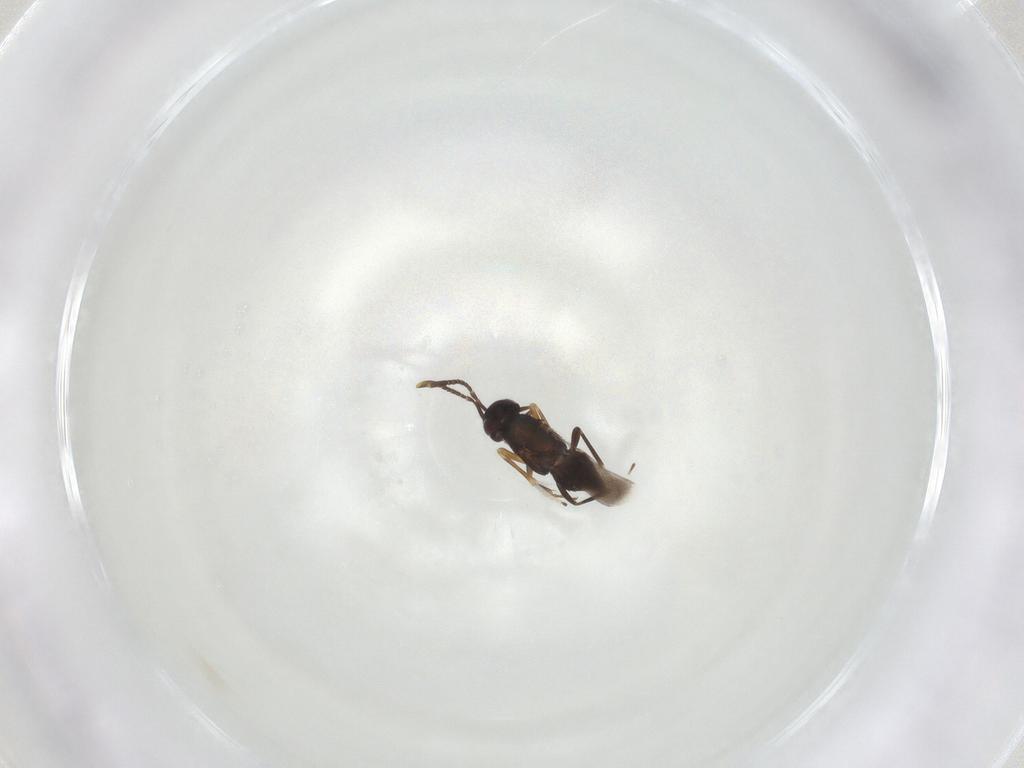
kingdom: Animalia
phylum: Arthropoda
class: Insecta
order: Hymenoptera
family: Encyrtidae
